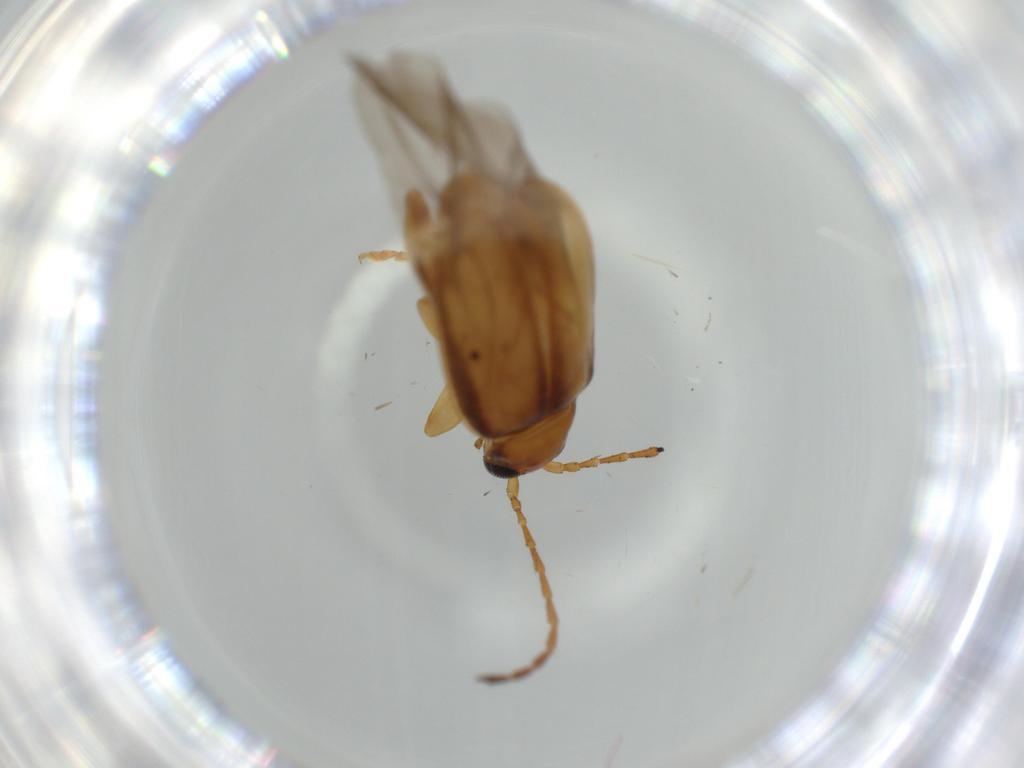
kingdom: Animalia
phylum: Arthropoda
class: Insecta
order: Coleoptera
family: Chrysomelidae
